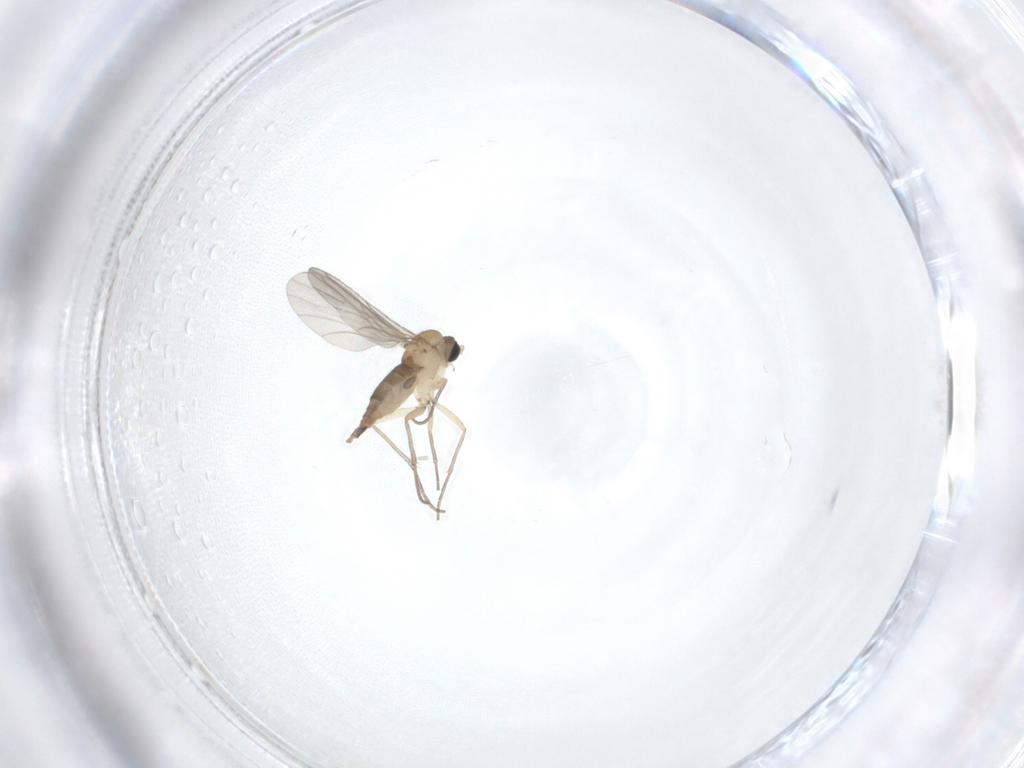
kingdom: Animalia
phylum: Arthropoda
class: Insecta
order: Diptera
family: Sciaridae
